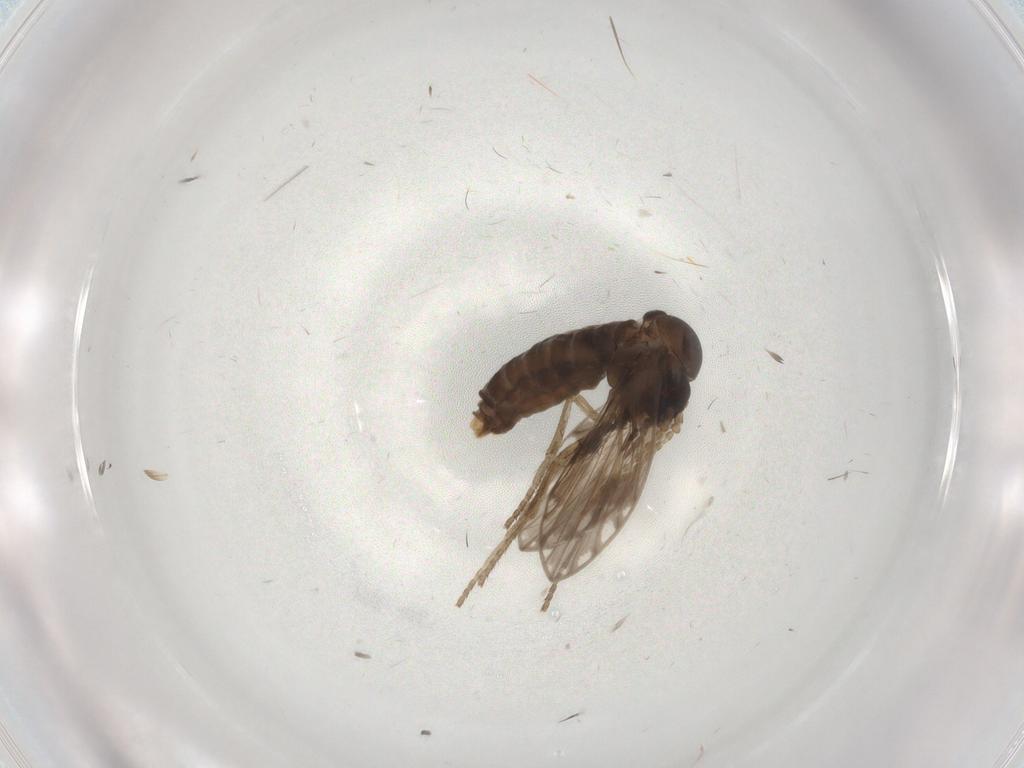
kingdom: Animalia
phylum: Arthropoda
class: Insecta
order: Diptera
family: Psychodidae
